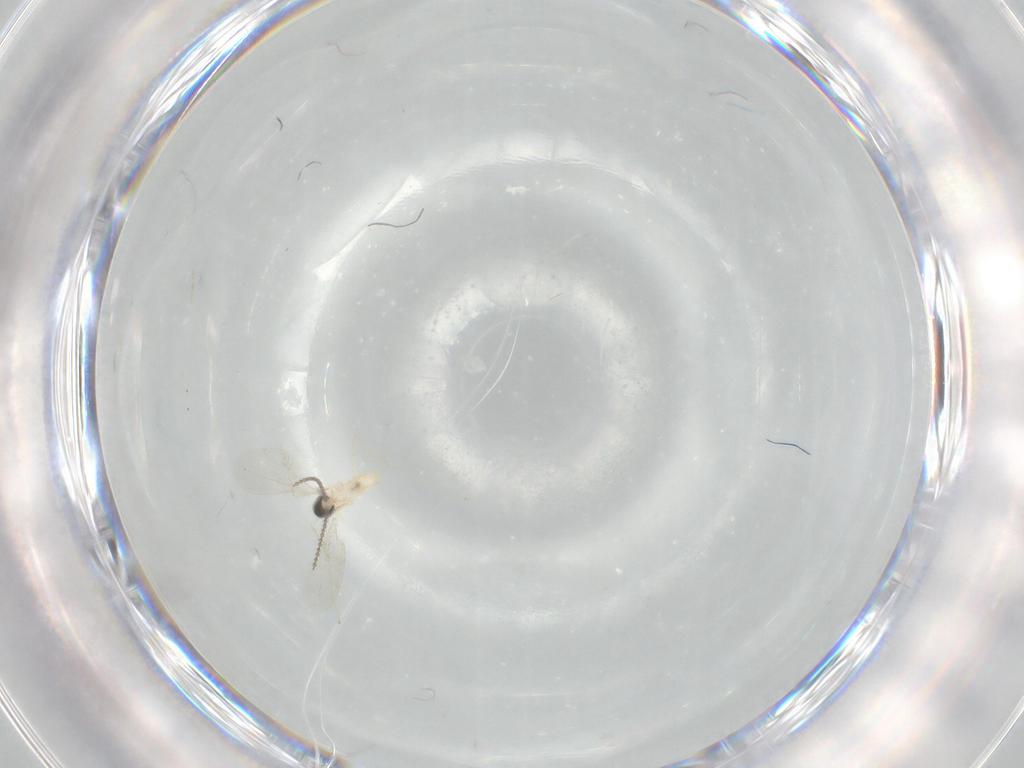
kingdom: Animalia
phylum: Arthropoda
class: Insecta
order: Diptera
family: Cecidomyiidae
